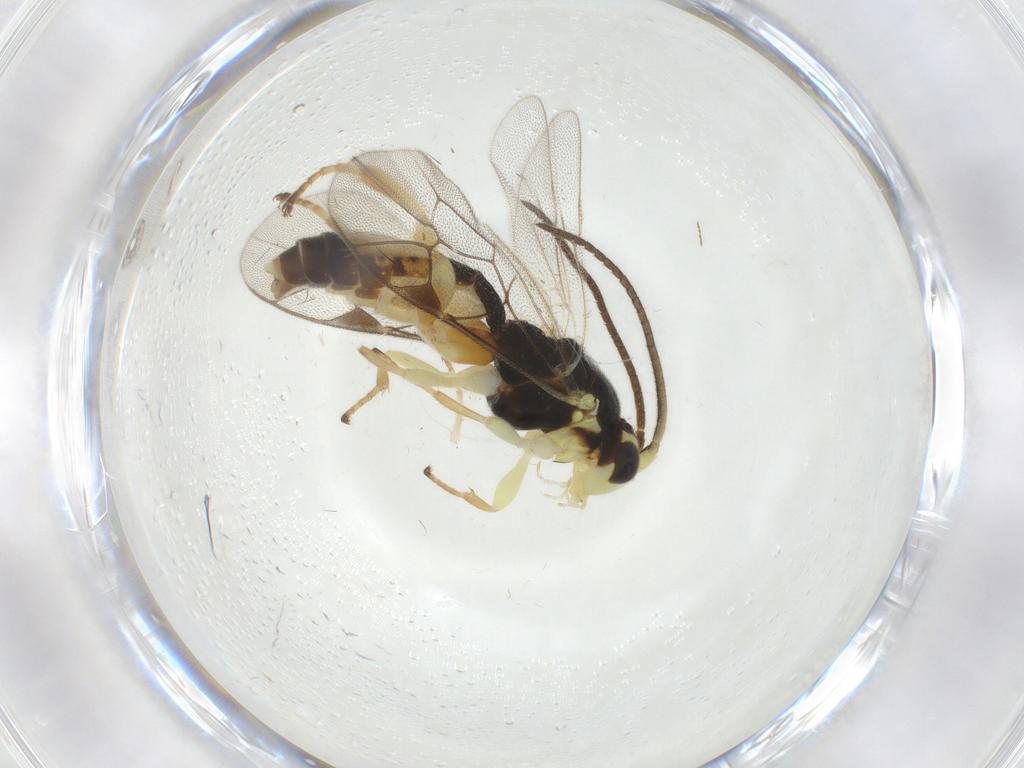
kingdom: Animalia
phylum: Arthropoda
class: Insecta
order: Hymenoptera
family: Ichneumonidae
